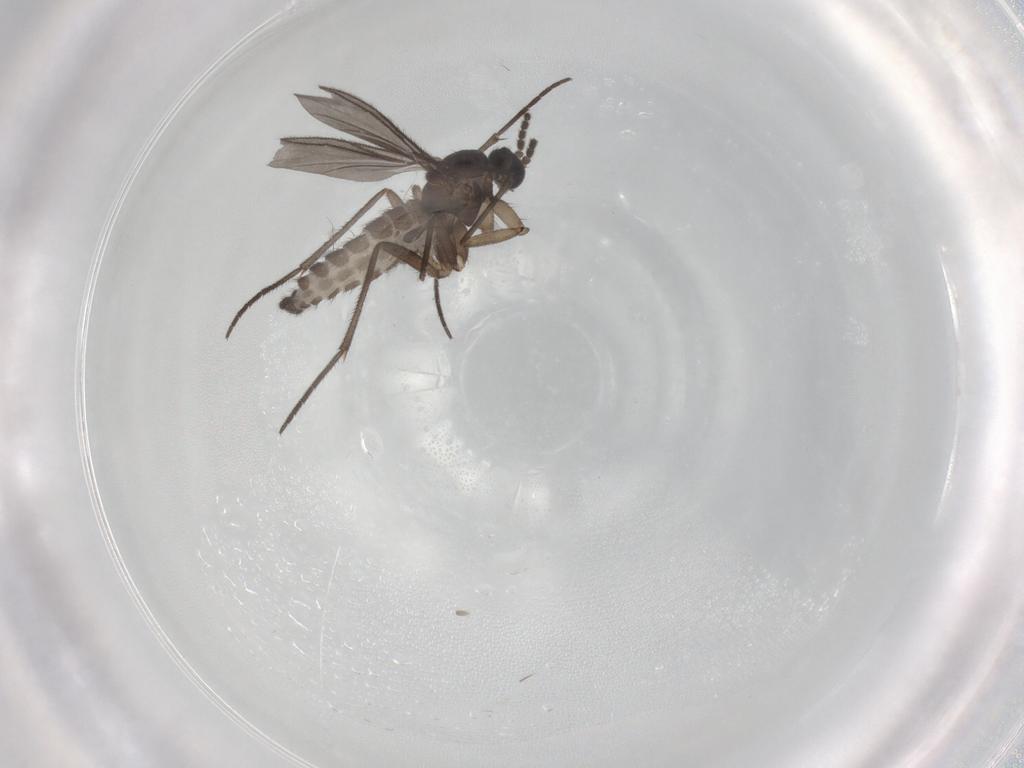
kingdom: Animalia
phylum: Arthropoda
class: Insecta
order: Diptera
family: Sciaridae
